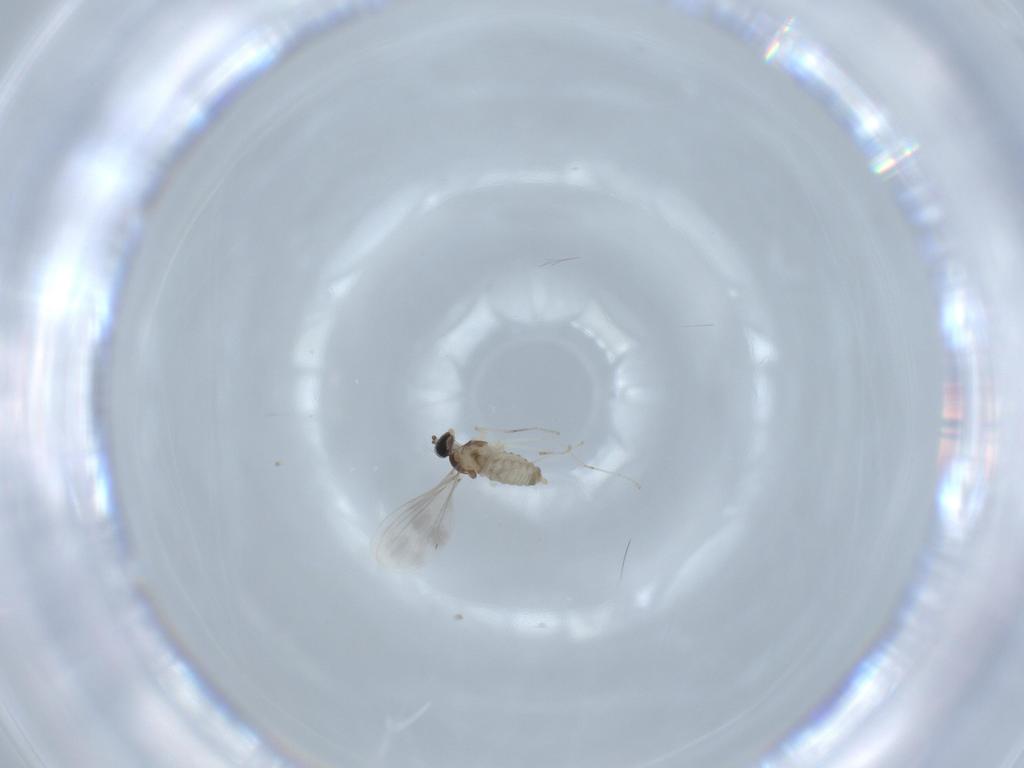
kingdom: Animalia
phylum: Arthropoda
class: Insecta
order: Diptera
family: Cecidomyiidae
